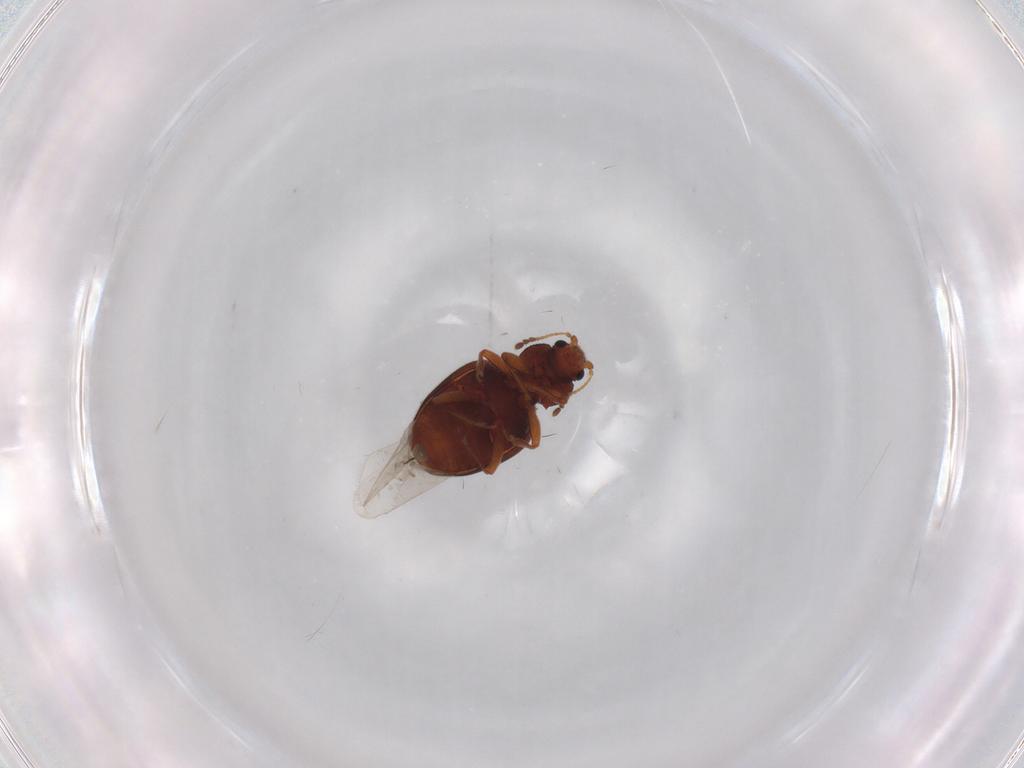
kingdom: Animalia
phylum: Arthropoda
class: Insecta
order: Coleoptera
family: Latridiidae
